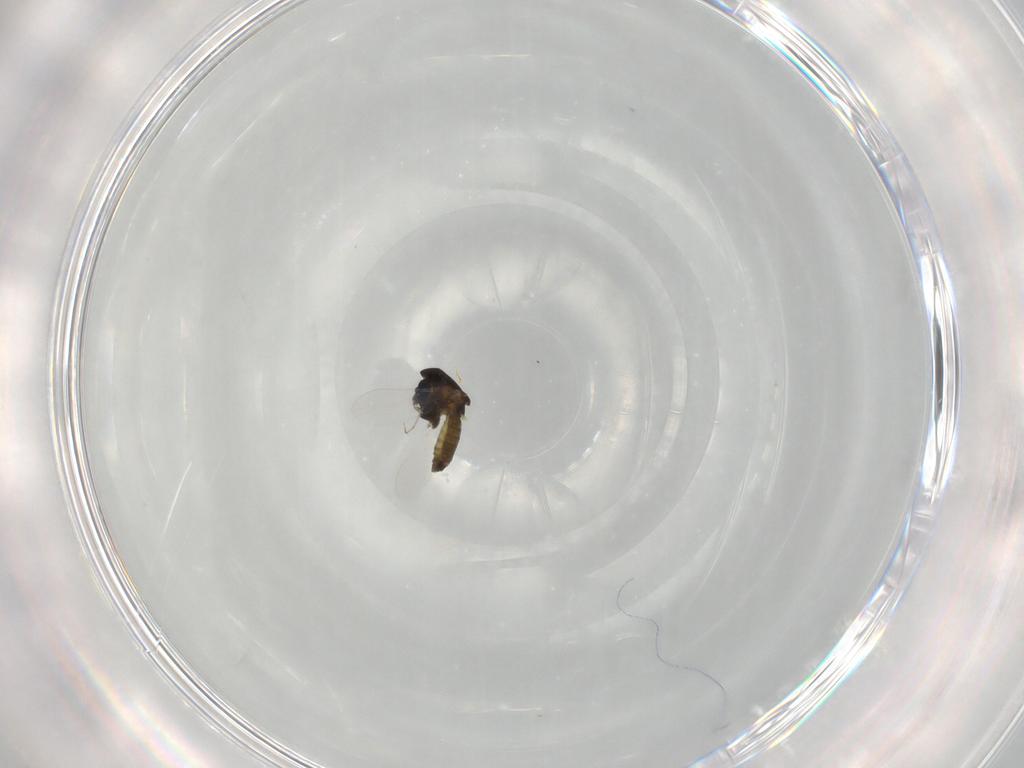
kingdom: Animalia
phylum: Arthropoda
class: Insecta
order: Diptera
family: Chironomidae
